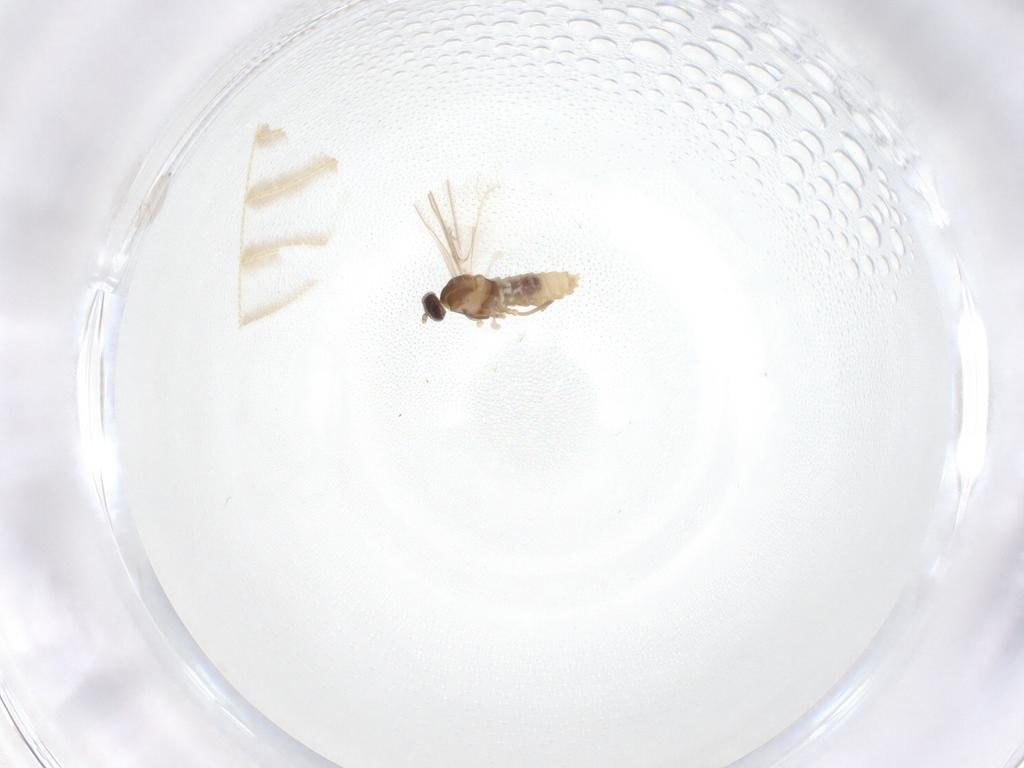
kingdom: Animalia
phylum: Arthropoda
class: Insecta
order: Diptera
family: Cecidomyiidae
